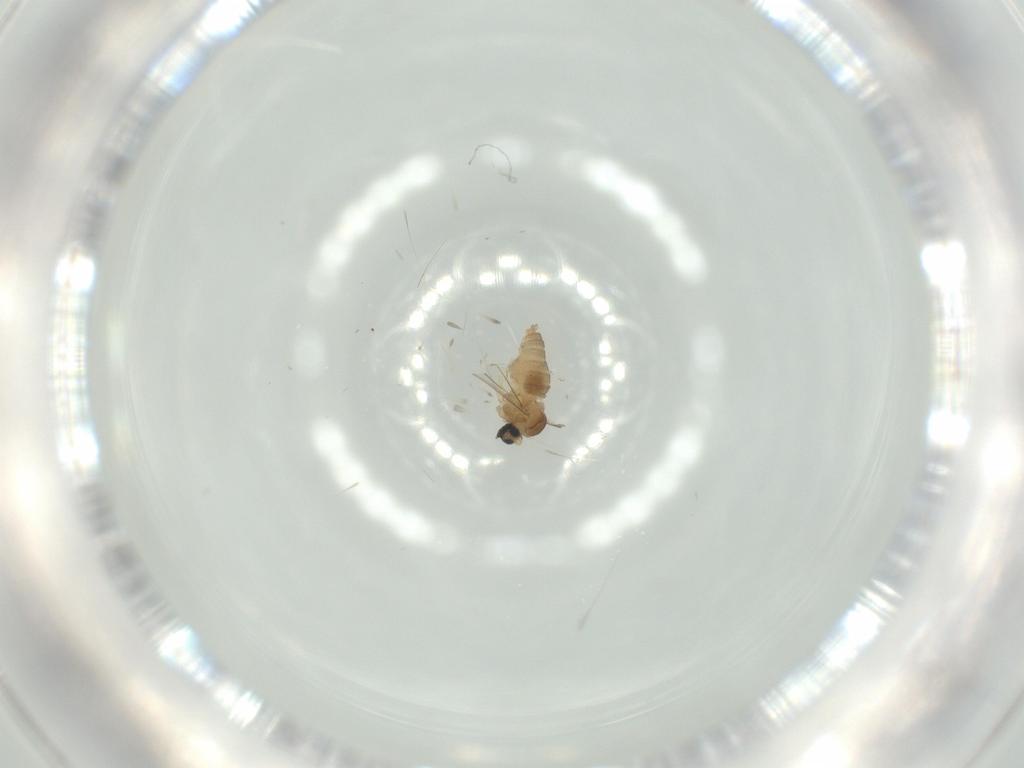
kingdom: Animalia
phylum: Arthropoda
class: Insecta
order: Diptera
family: Cecidomyiidae
